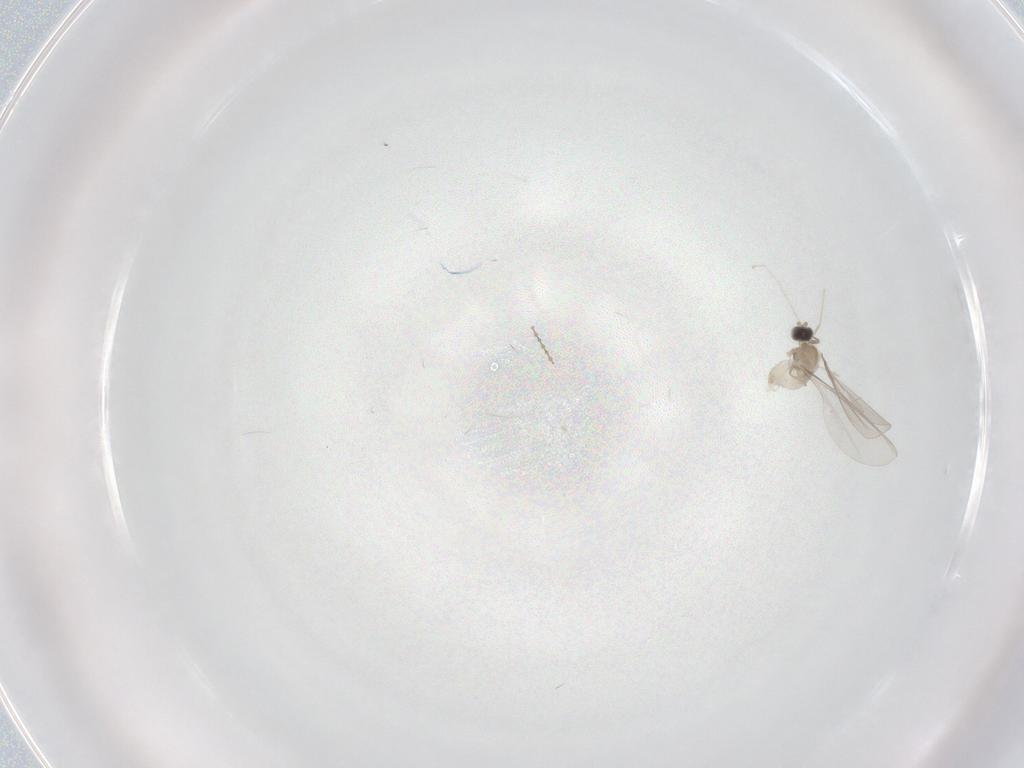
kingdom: Animalia
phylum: Arthropoda
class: Insecta
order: Diptera
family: Cecidomyiidae
